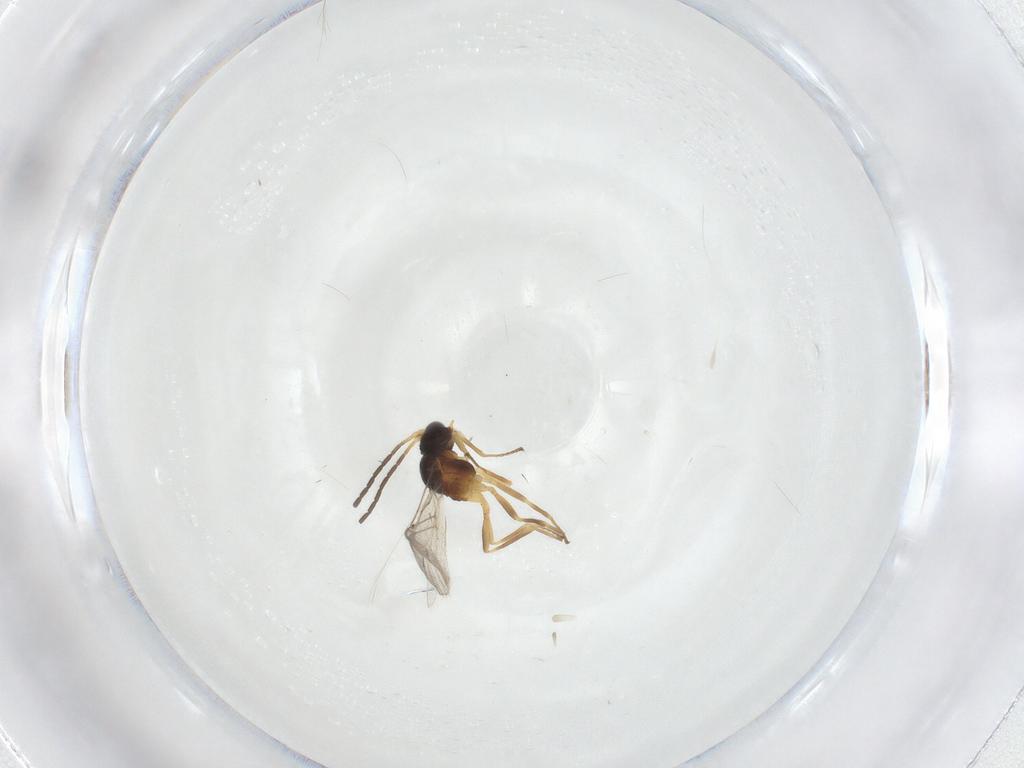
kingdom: Animalia
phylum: Arthropoda
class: Insecta
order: Hymenoptera
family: Braconidae
